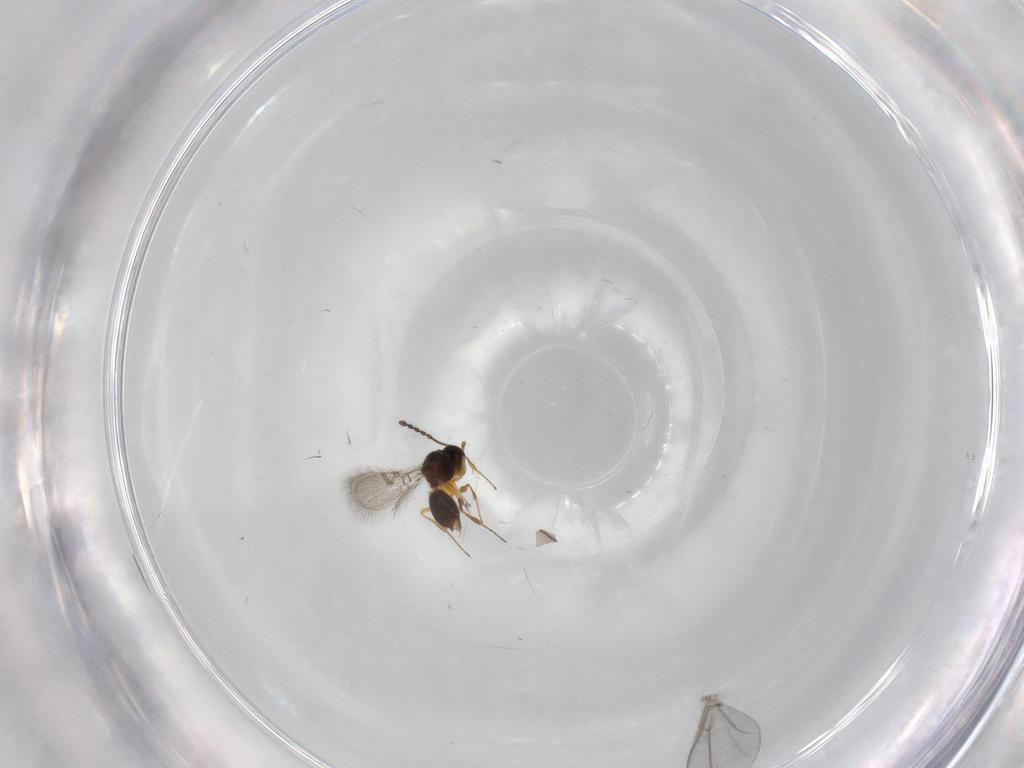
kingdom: Animalia
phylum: Arthropoda
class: Insecta
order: Hymenoptera
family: Figitidae
